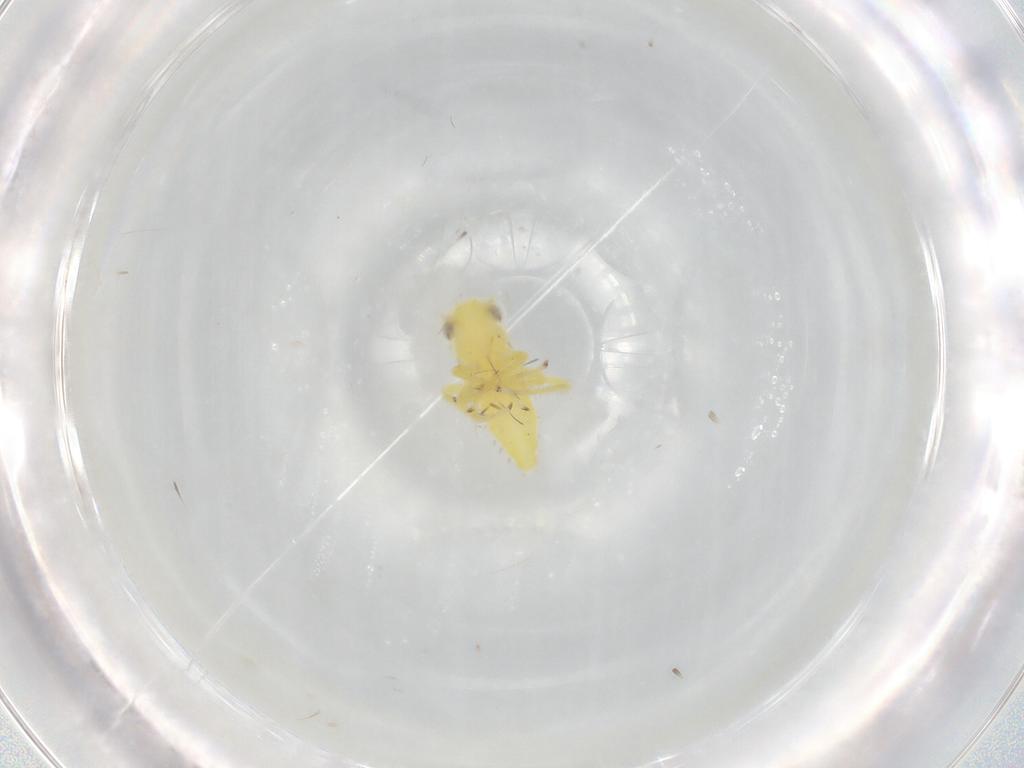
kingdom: Animalia
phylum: Arthropoda
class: Insecta
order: Hemiptera
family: Cicadellidae
